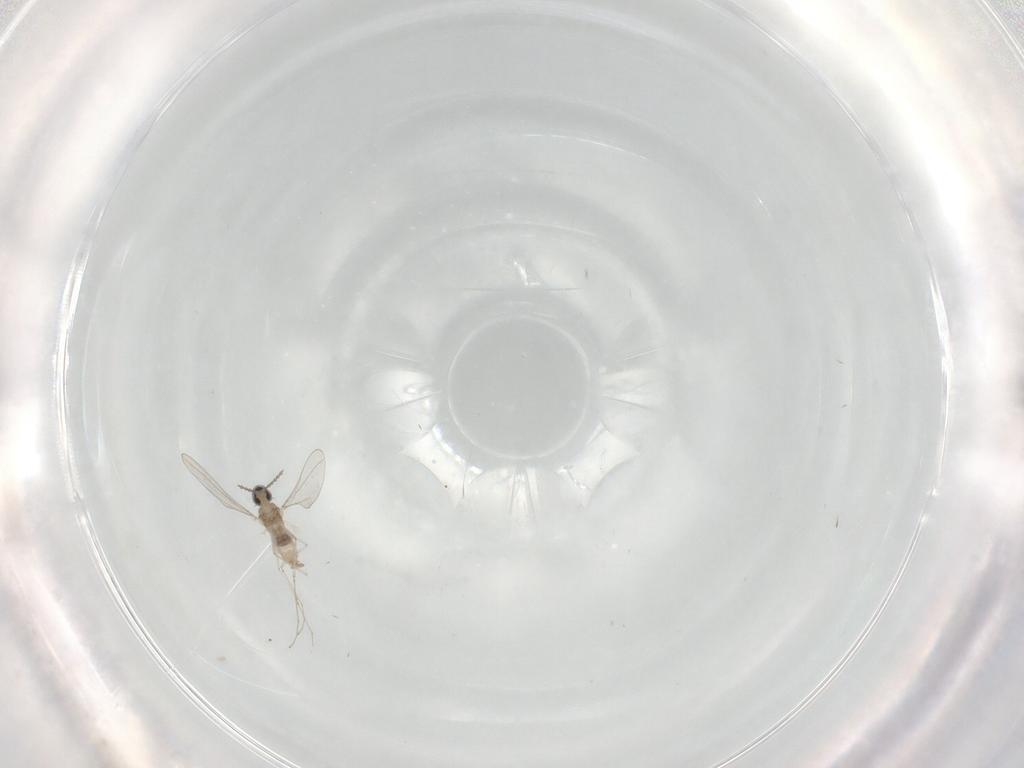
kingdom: Animalia
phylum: Arthropoda
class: Insecta
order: Diptera
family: Cecidomyiidae
